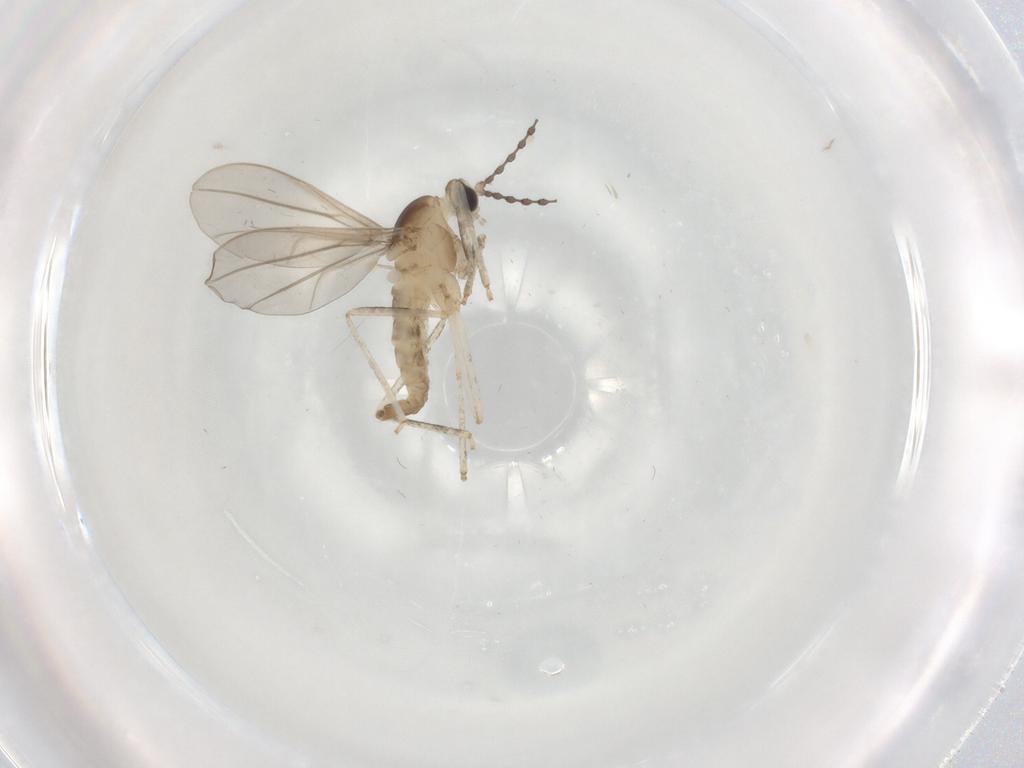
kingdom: Animalia
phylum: Arthropoda
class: Insecta
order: Diptera
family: Cecidomyiidae
